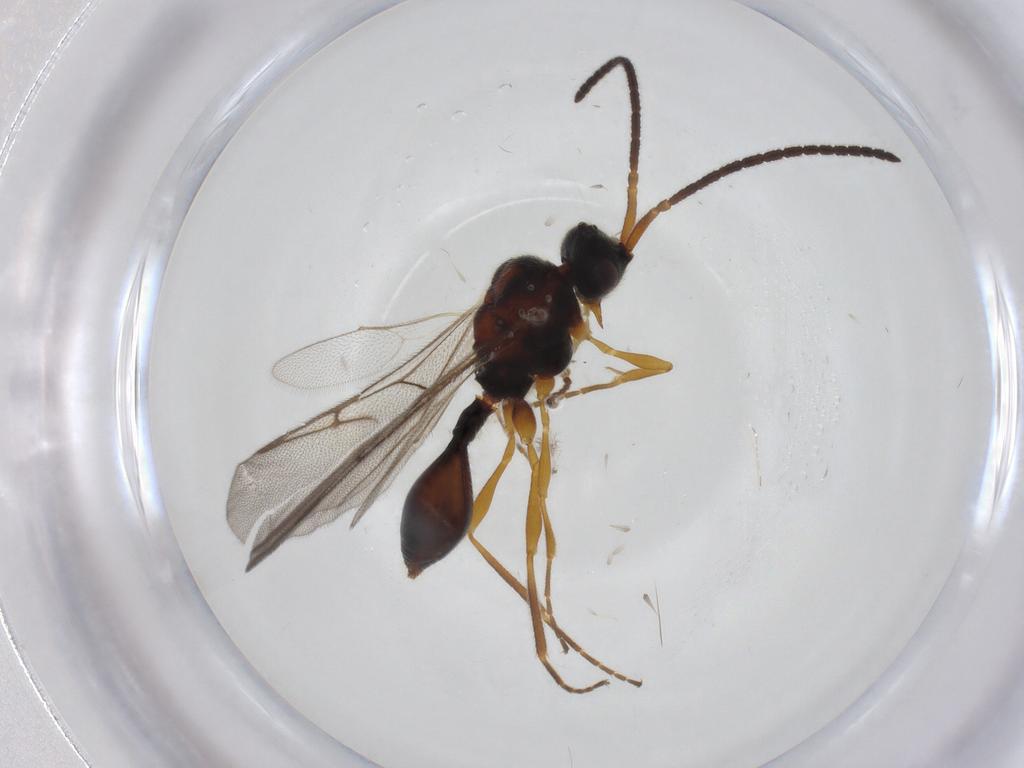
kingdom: Animalia
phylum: Arthropoda
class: Insecta
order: Hymenoptera
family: Diapriidae
